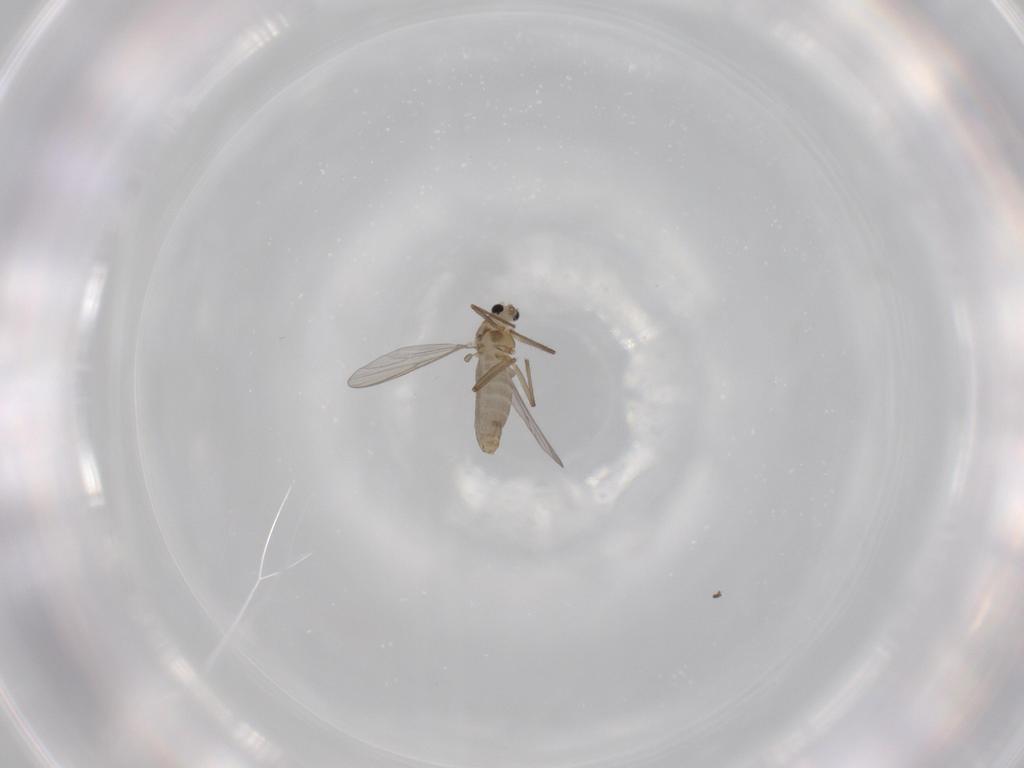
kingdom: Animalia
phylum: Arthropoda
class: Insecta
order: Diptera
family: Chironomidae
